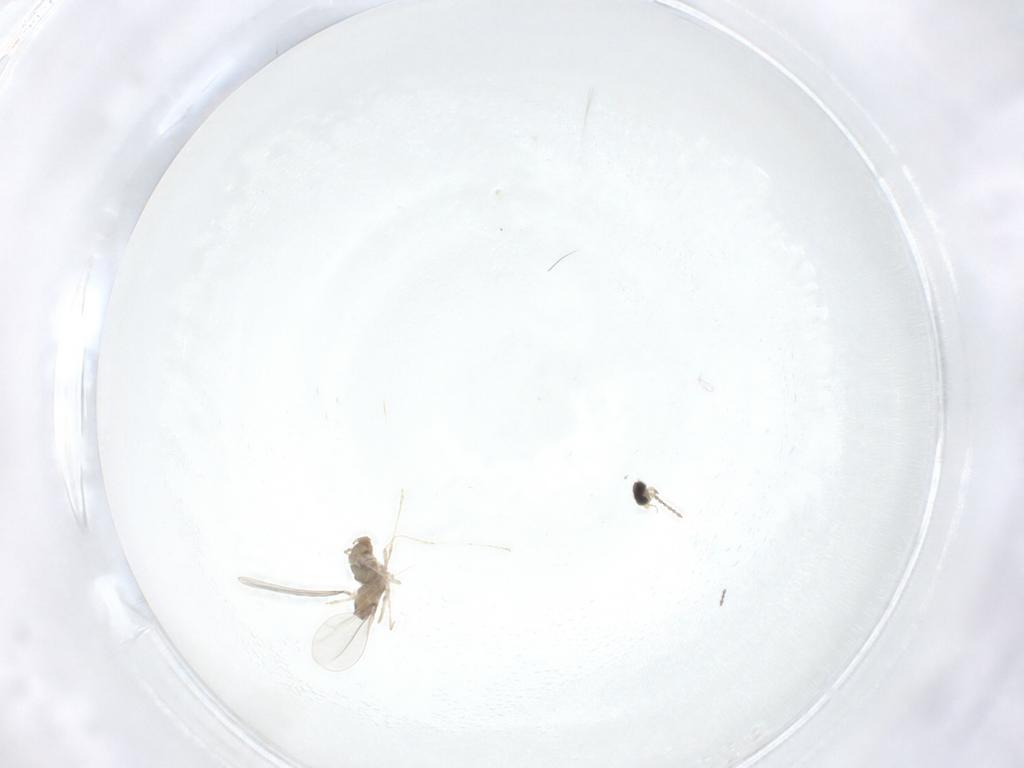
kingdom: Animalia
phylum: Arthropoda
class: Insecta
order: Diptera
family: Cecidomyiidae
